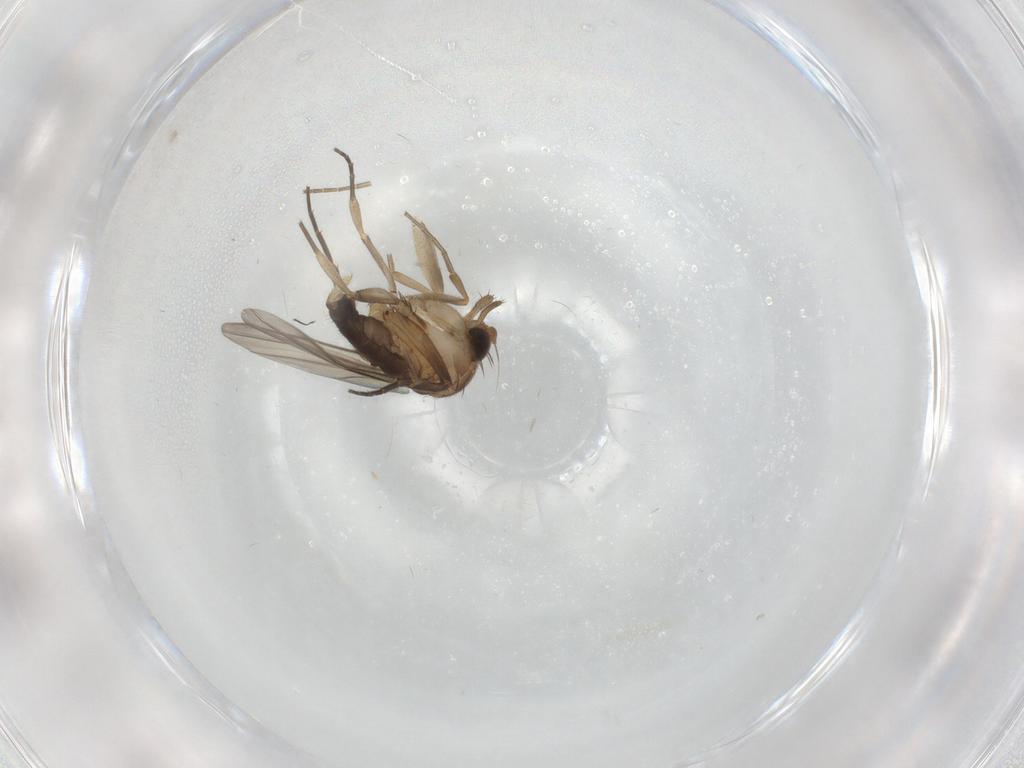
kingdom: Animalia
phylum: Arthropoda
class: Insecta
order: Diptera
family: Phoridae
